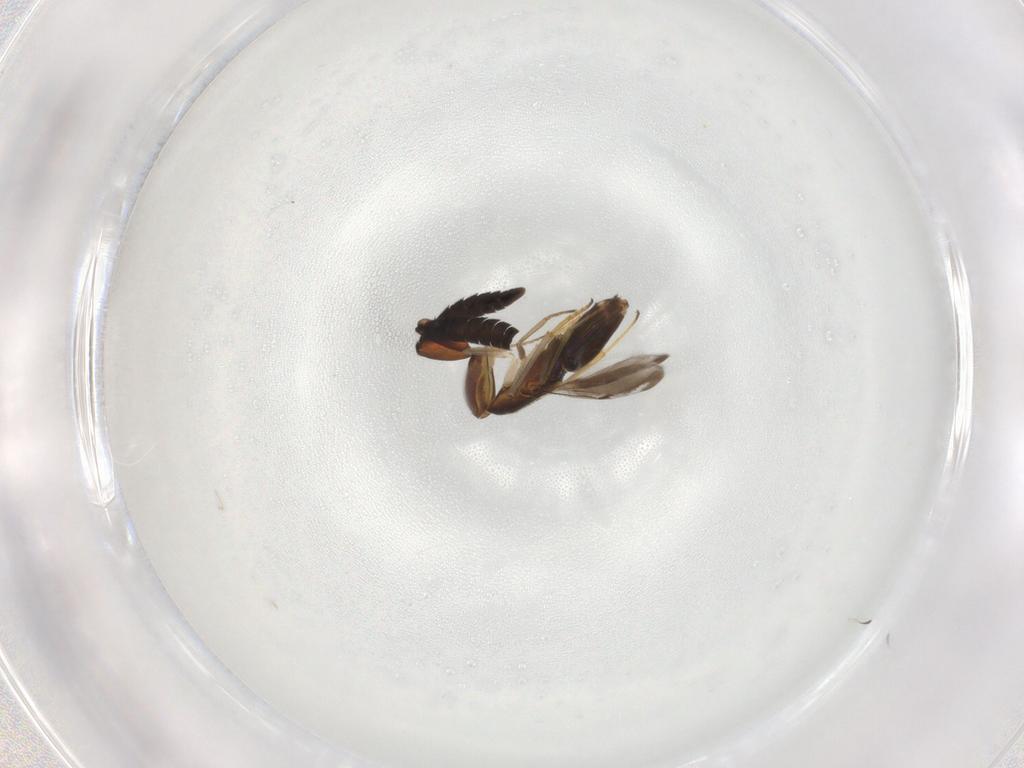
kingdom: Animalia
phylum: Arthropoda
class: Insecta
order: Hymenoptera
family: Encyrtidae
